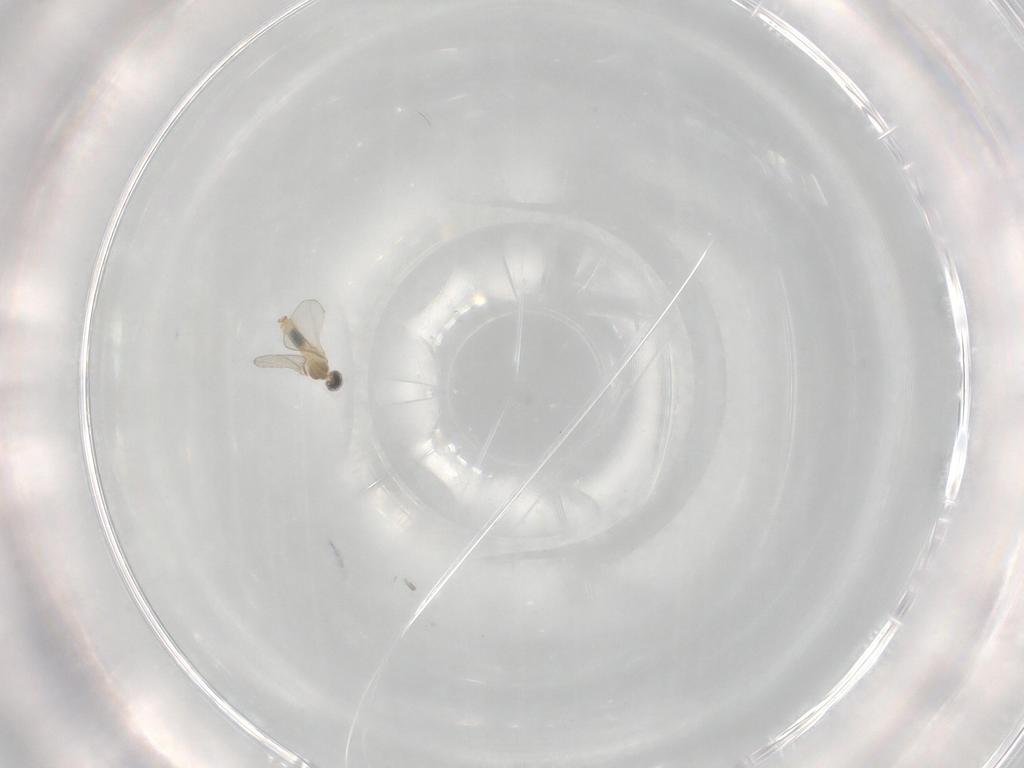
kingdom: Animalia
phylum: Arthropoda
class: Insecta
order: Diptera
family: Cecidomyiidae
